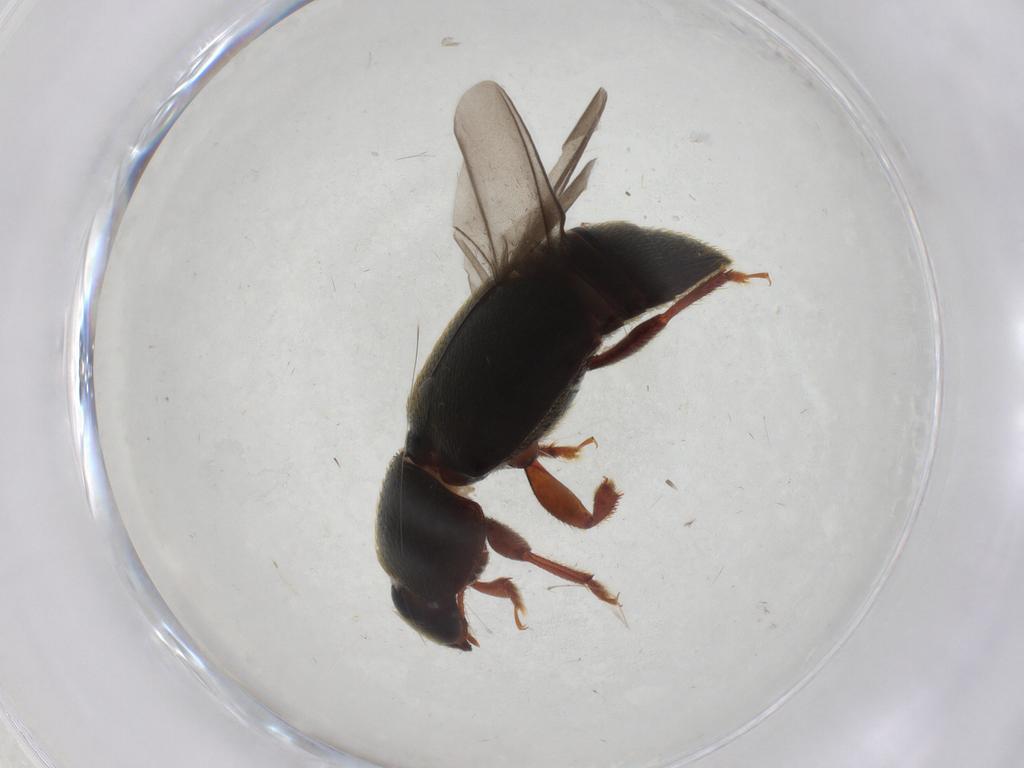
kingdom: Animalia
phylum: Arthropoda
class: Insecta
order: Coleoptera
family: Nitidulidae
